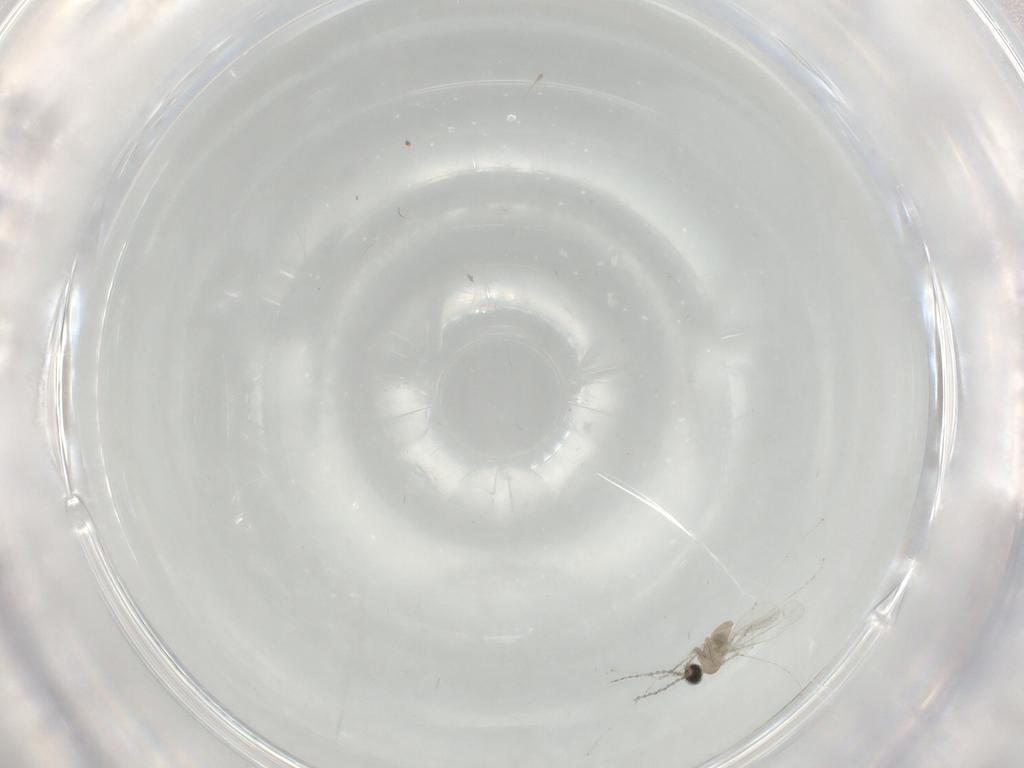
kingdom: Animalia
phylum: Arthropoda
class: Insecta
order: Diptera
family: Cecidomyiidae
